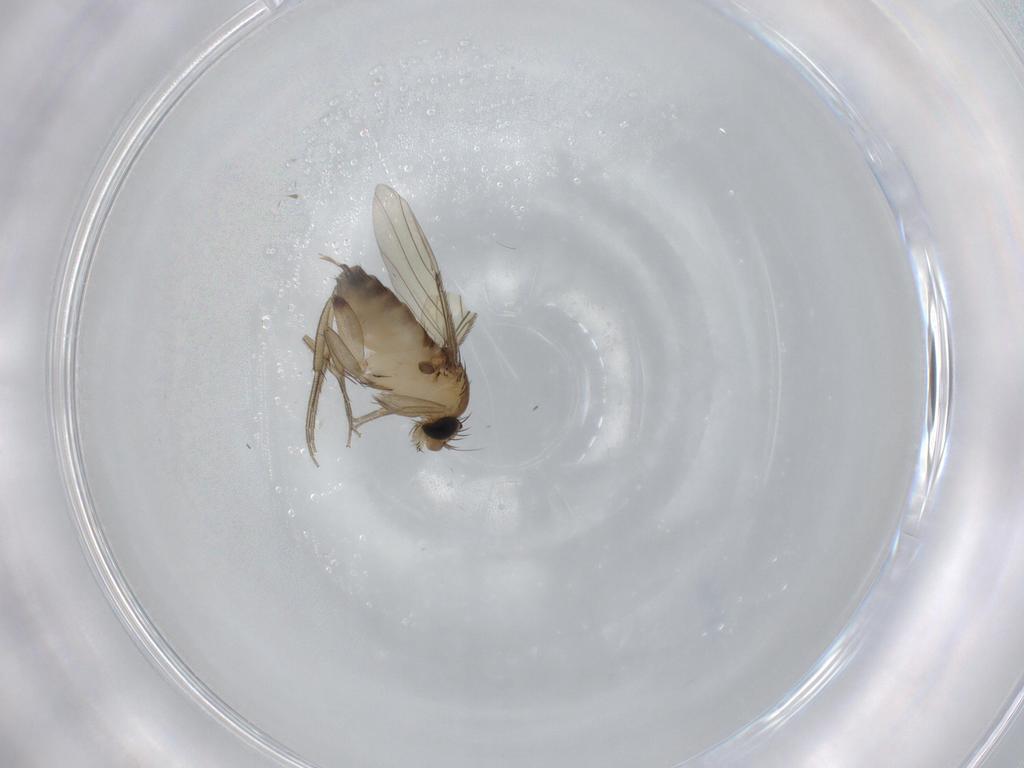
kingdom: Animalia
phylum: Arthropoda
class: Insecta
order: Diptera
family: Phoridae
